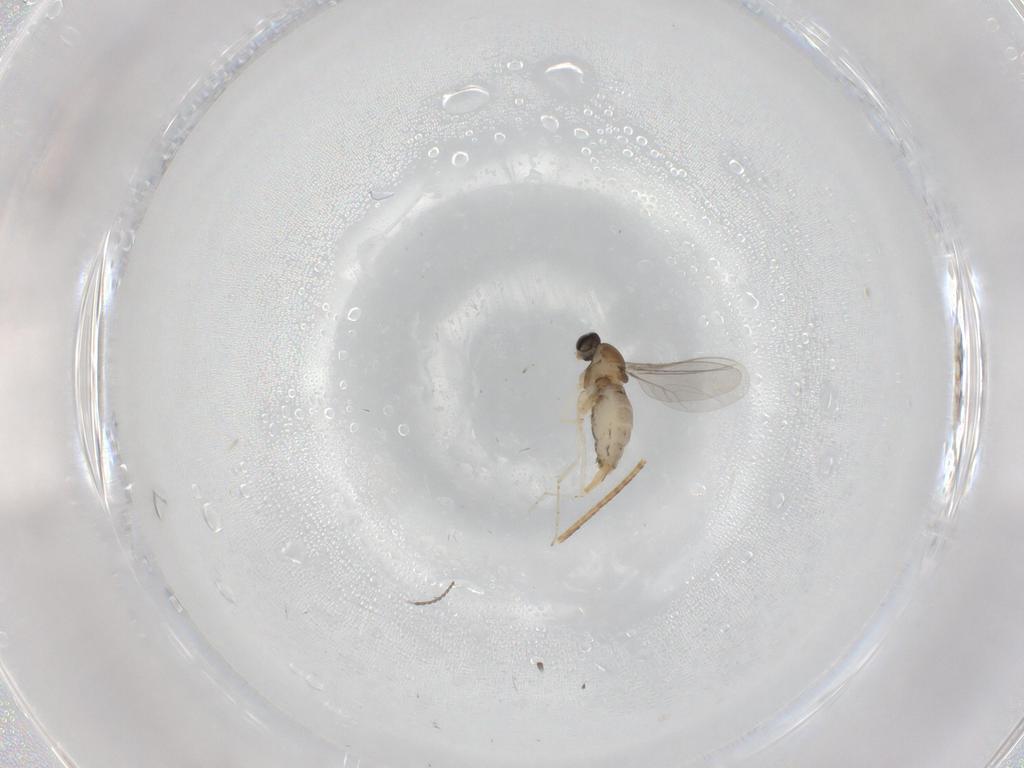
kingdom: Animalia
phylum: Arthropoda
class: Insecta
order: Diptera
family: Cecidomyiidae
